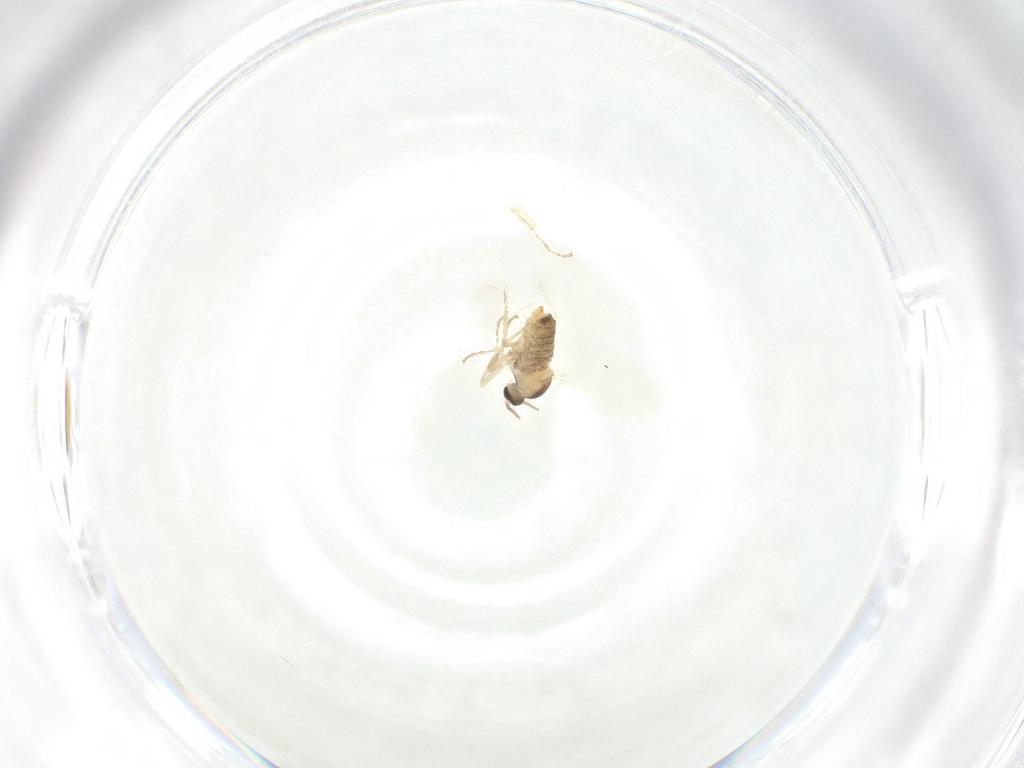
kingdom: Animalia
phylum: Arthropoda
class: Insecta
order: Diptera
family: Cecidomyiidae
